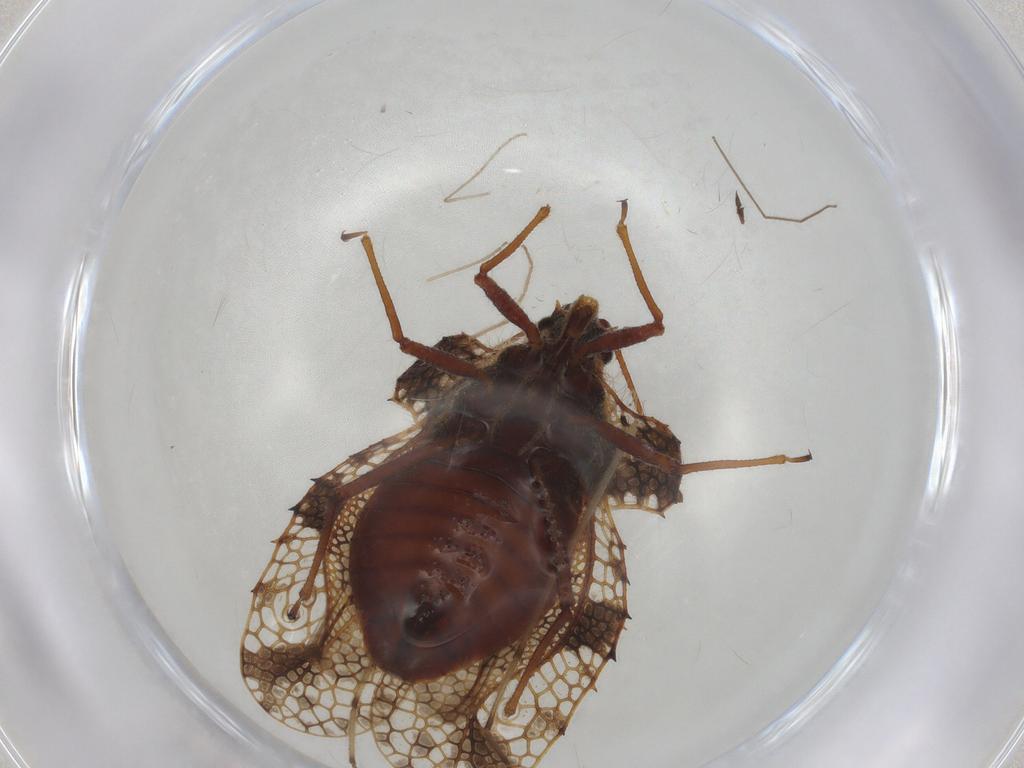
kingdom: Animalia
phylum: Arthropoda
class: Insecta
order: Hemiptera
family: Tingidae
